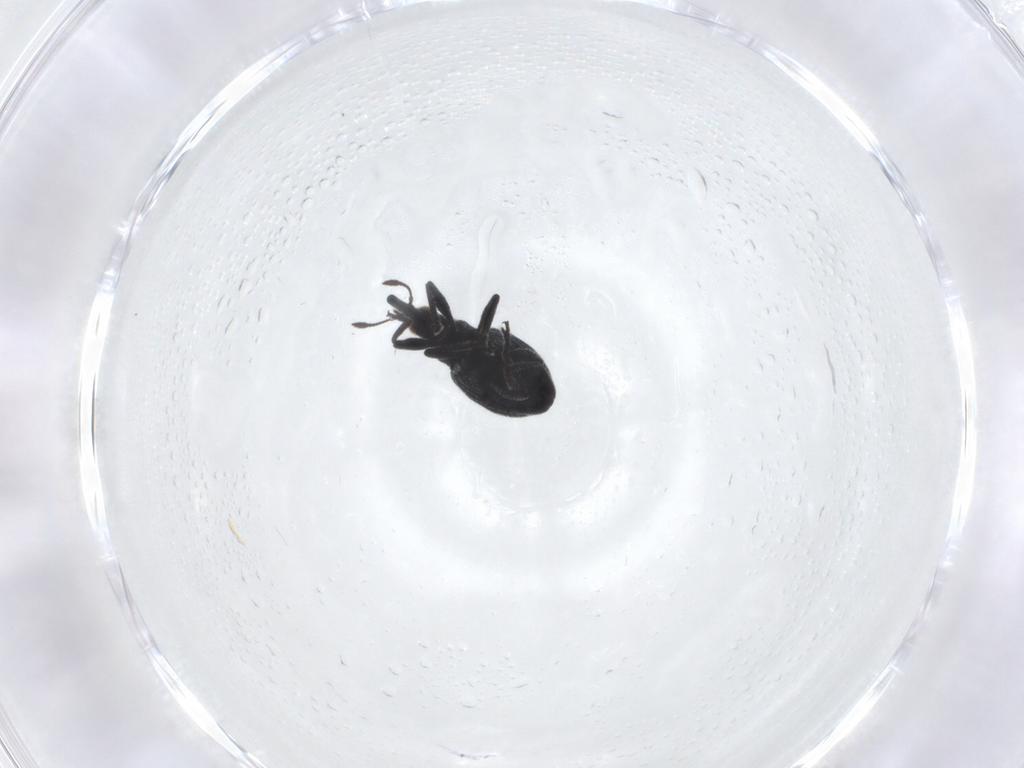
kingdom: Animalia
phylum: Arthropoda
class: Insecta
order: Coleoptera
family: Brentidae
